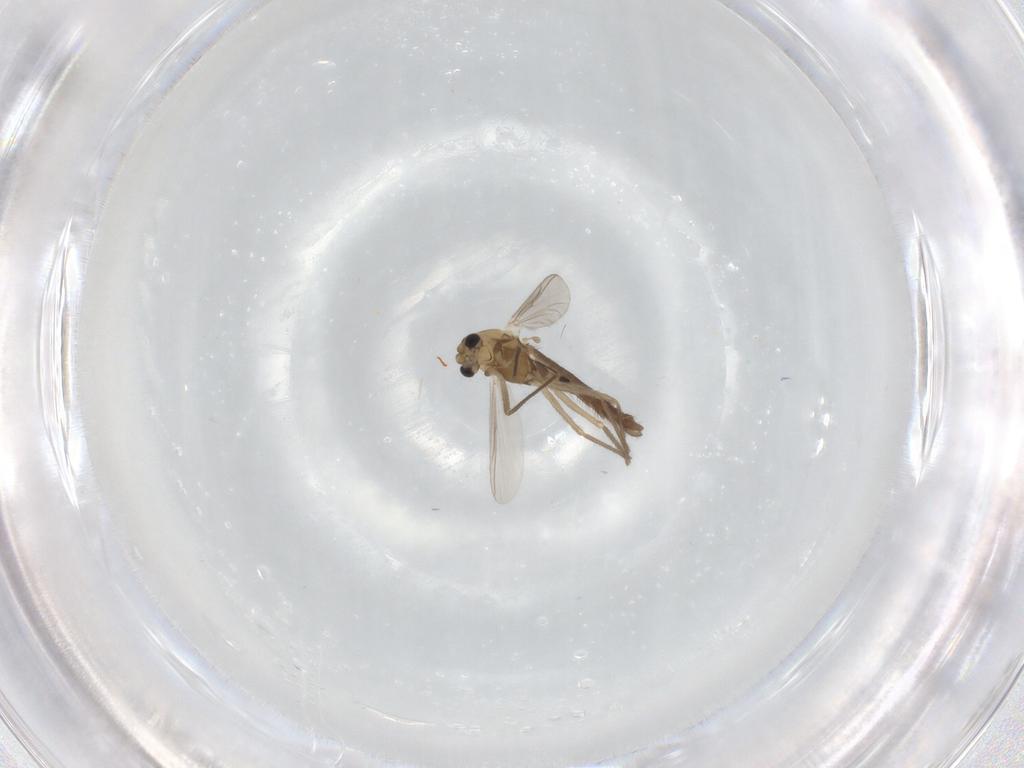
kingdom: Animalia
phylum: Arthropoda
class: Insecta
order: Diptera
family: Chironomidae
